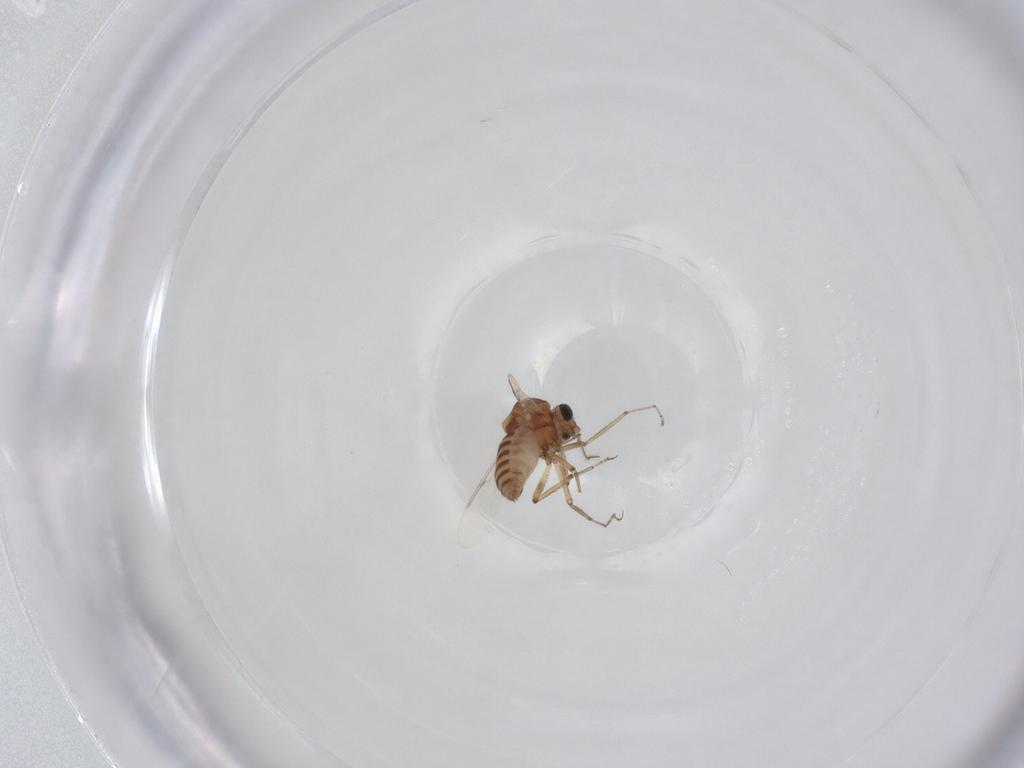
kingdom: Animalia
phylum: Arthropoda
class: Insecta
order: Diptera
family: Ceratopogonidae
